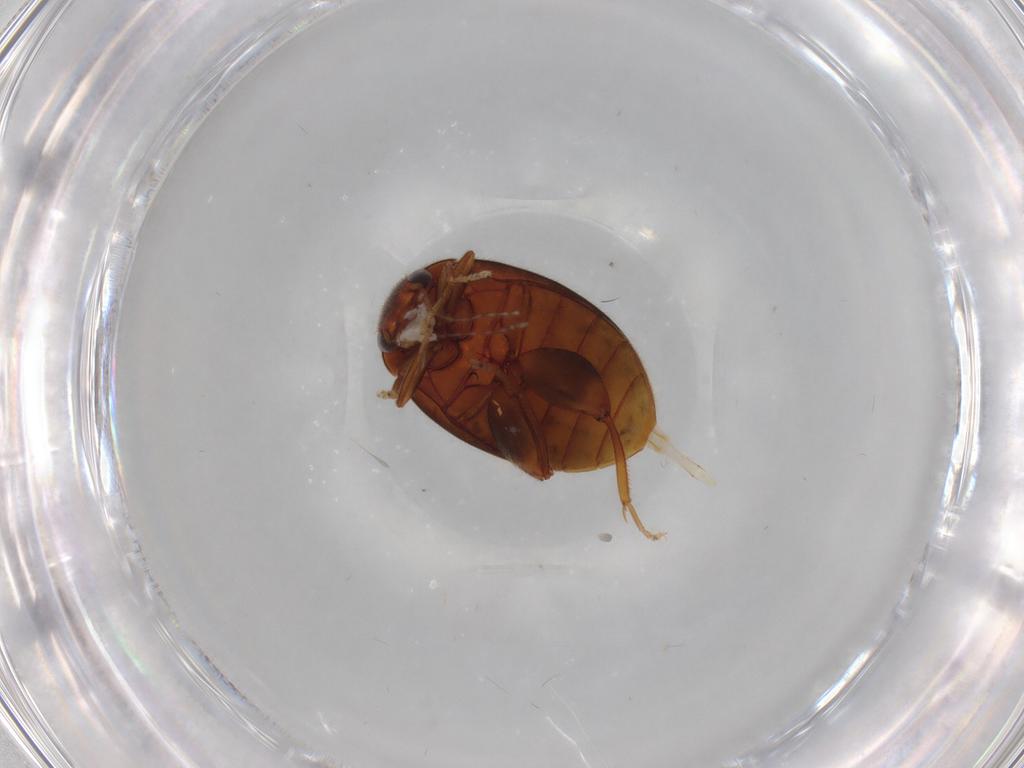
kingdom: Animalia
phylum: Arthropoda
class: Insecta
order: Coleoptera
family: Scirtidae
